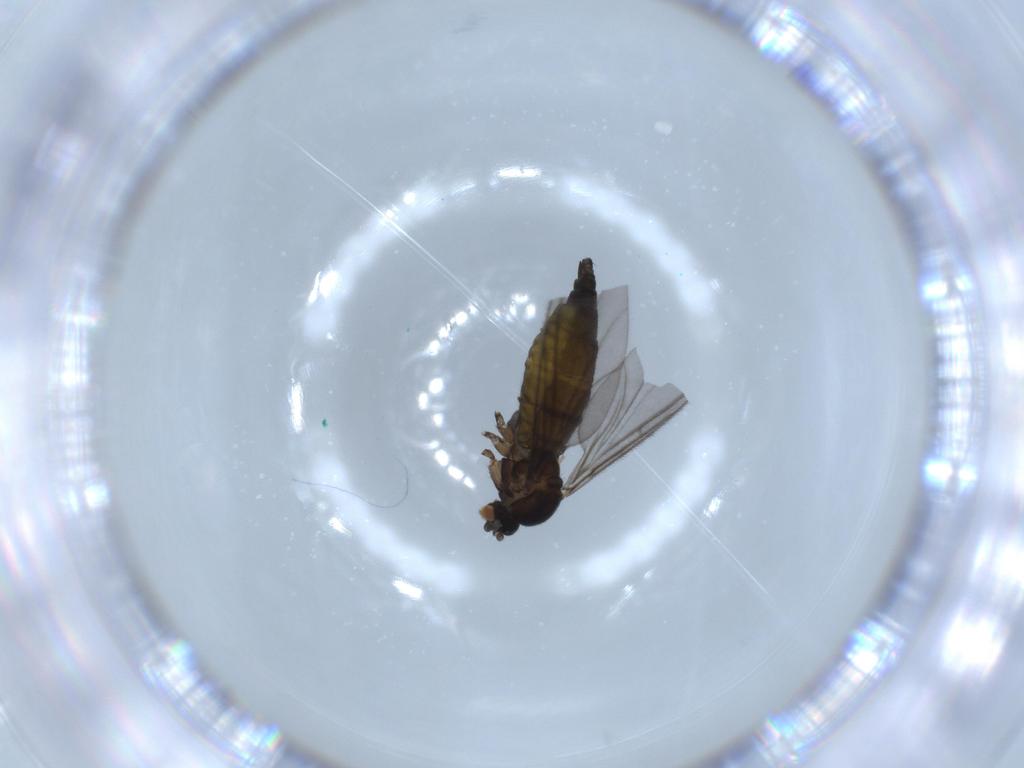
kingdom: Animalia
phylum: Arthropoda
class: Insecta
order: Diptera
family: Sciaridae
